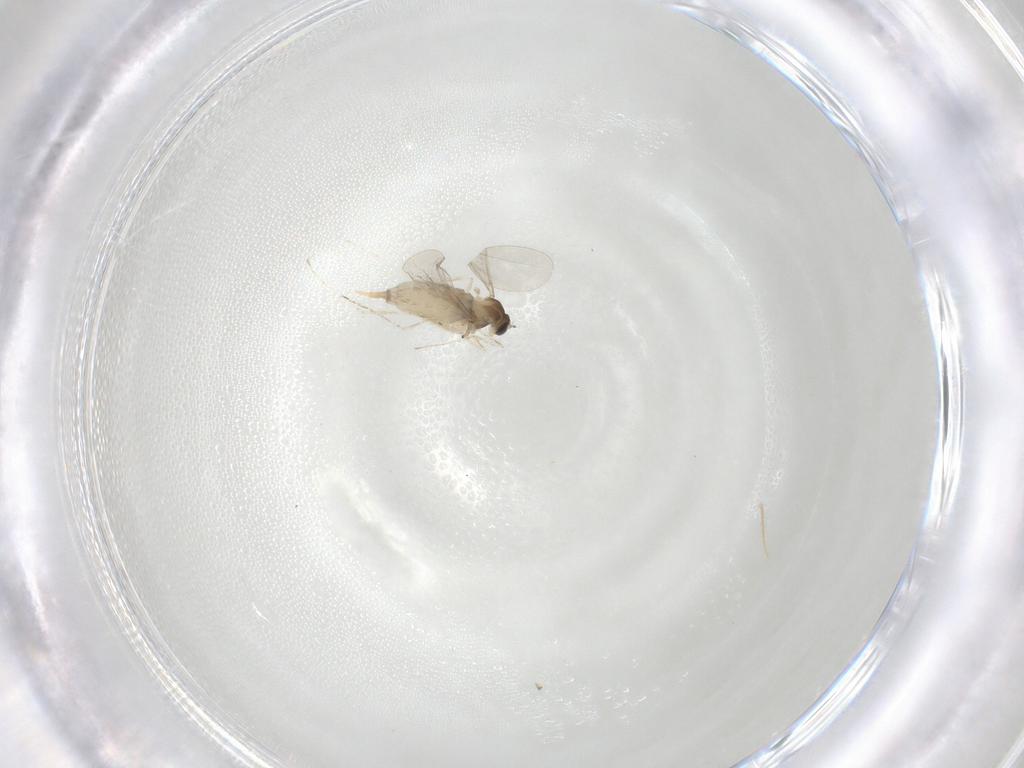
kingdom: Animalia
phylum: Arthropoda
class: Insecta
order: Diptera
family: Cecidomyiidae
